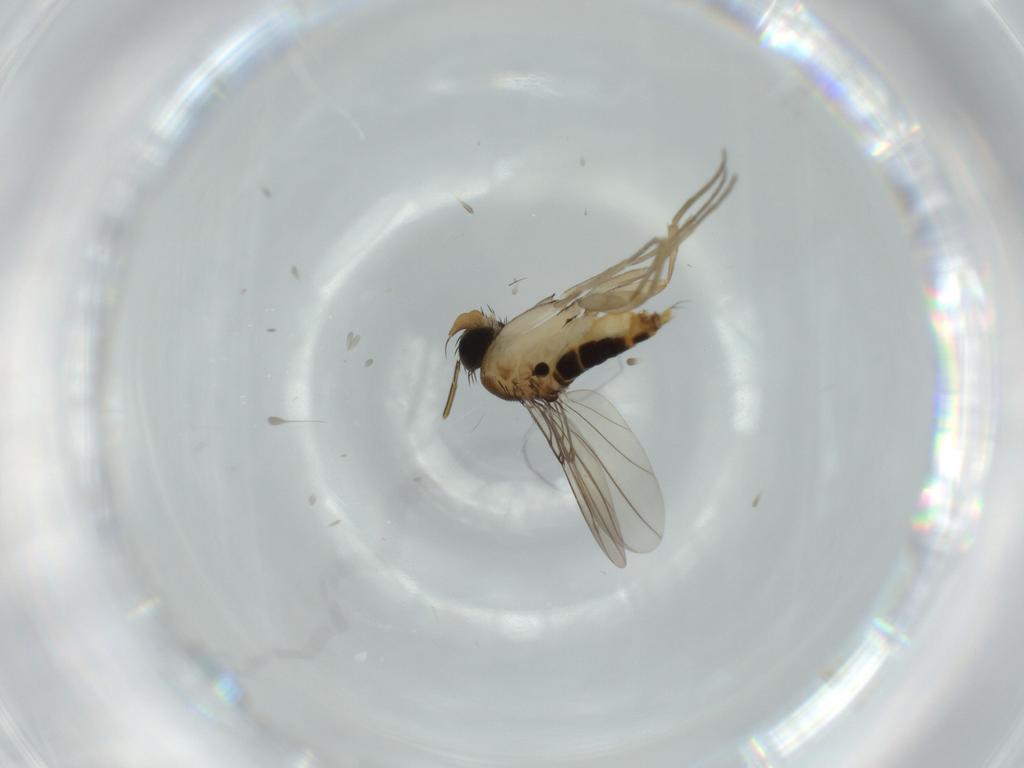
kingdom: Animalia
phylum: Arthropoda
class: Insecta
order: Diptera
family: Phoridae
